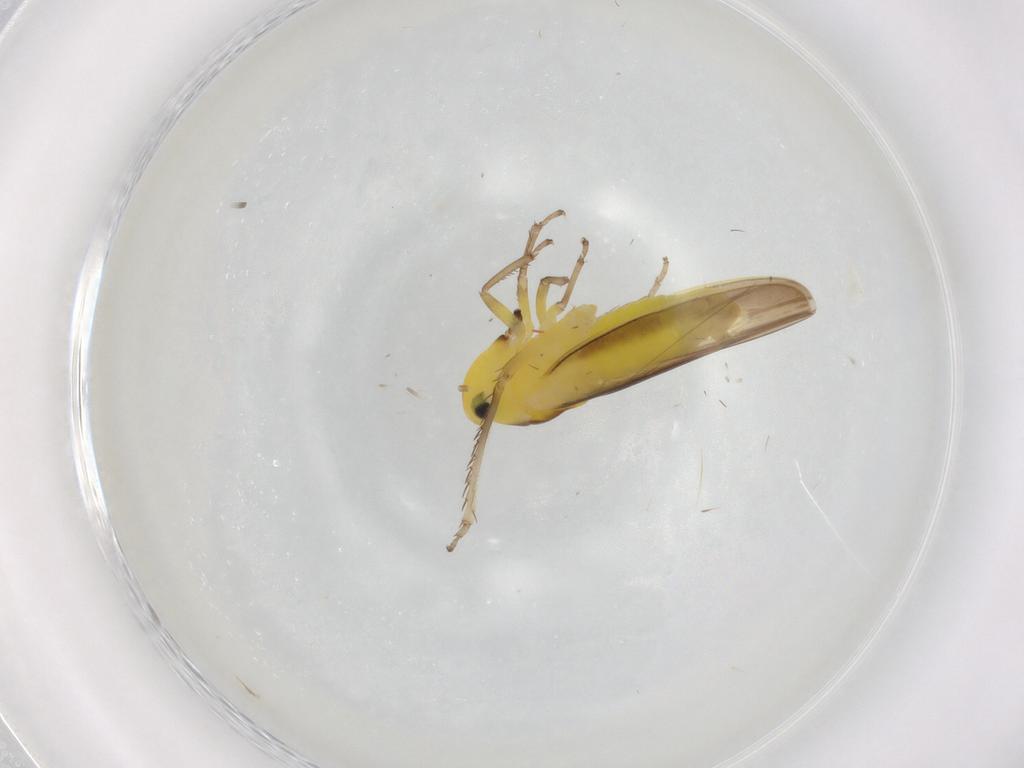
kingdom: Animalia
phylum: Arthropoda
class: Insecta
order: Hemiptera
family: Cicadellidae
